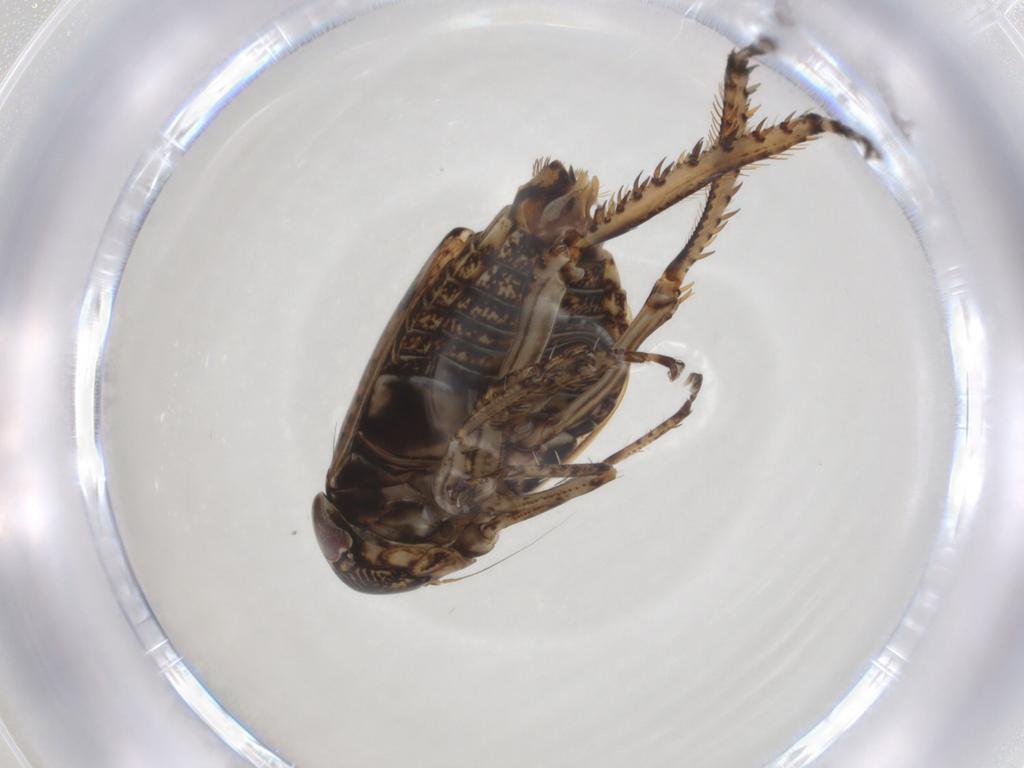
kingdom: Animalia
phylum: Arthropoda
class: Insecta
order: Hemiptera
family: Cicadellidae
